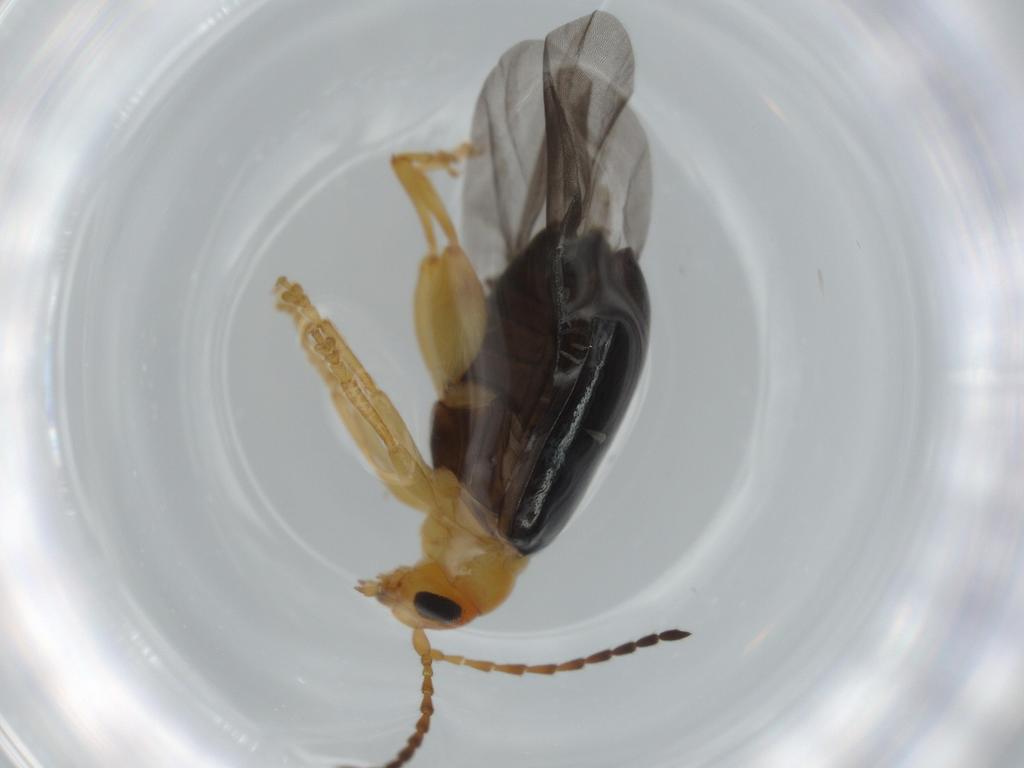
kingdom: Animalia
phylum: Arthropoda
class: Insecta
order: Coleoptera
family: Chrysomelidae
